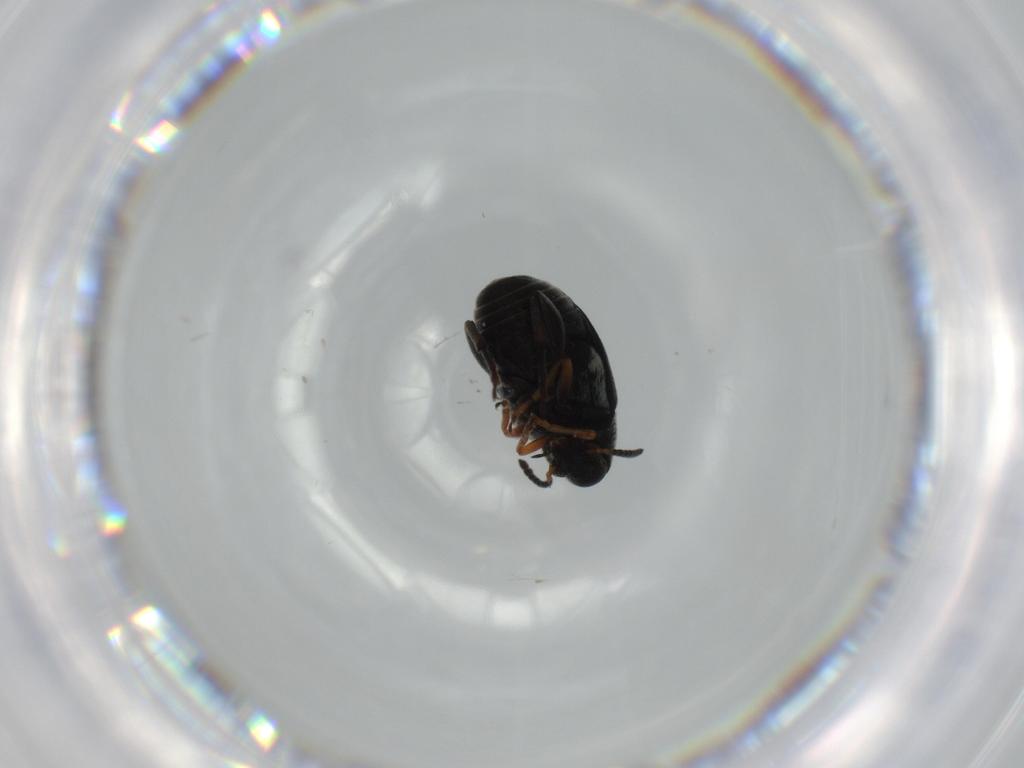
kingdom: Animalia
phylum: Arthropoda
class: Insecta
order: Coleoptera
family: Chrysomelidae
